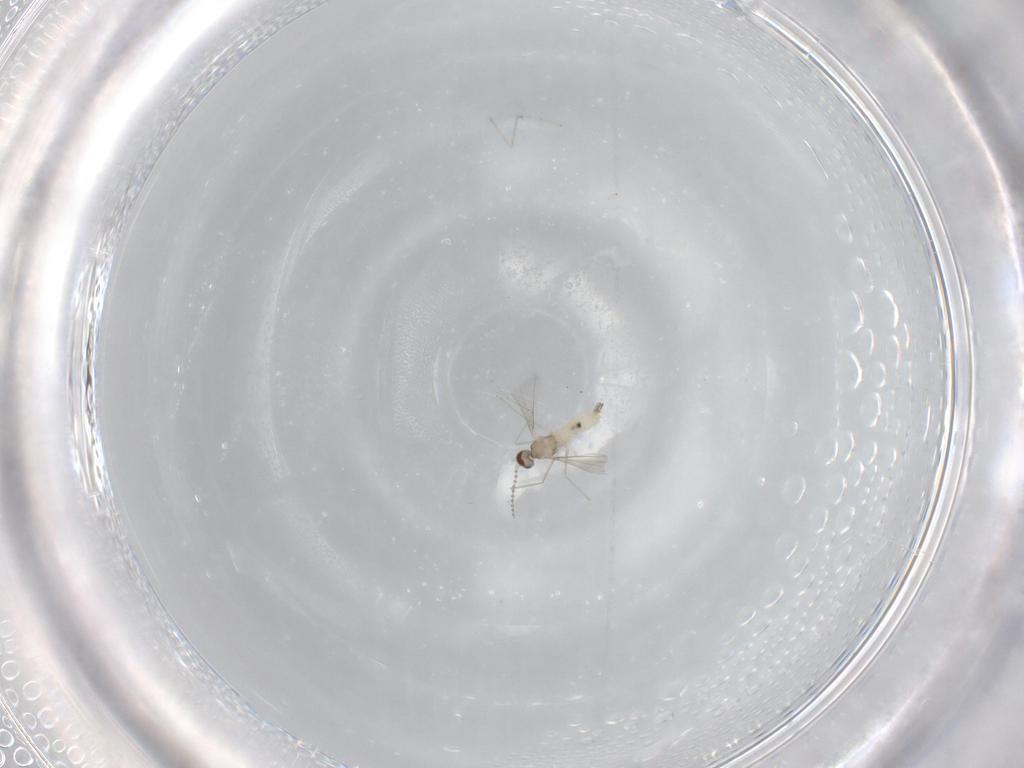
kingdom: Animalia
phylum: Arthropoda
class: Insecta
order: Diptera
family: Cecidomyiidae
